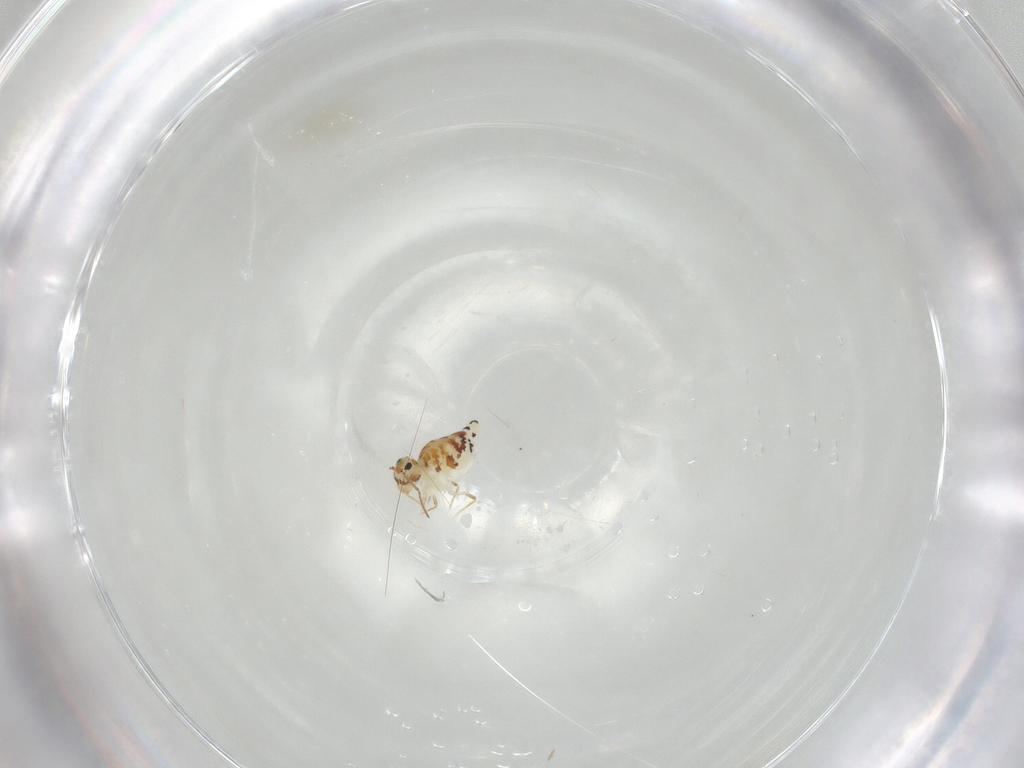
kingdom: Animalia
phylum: Arthropoda
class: Collembola
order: Symphypleona
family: Bourletiellidae
